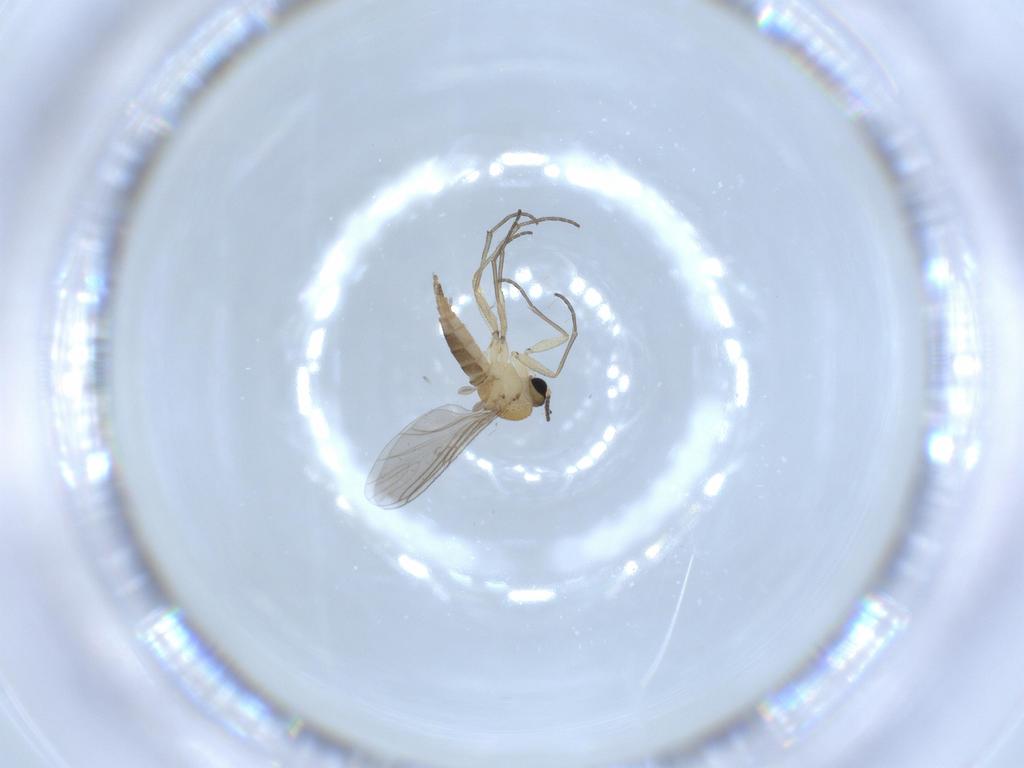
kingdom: Animalia
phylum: Arthropoda
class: Insecta
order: Diptera
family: Sciaridae
